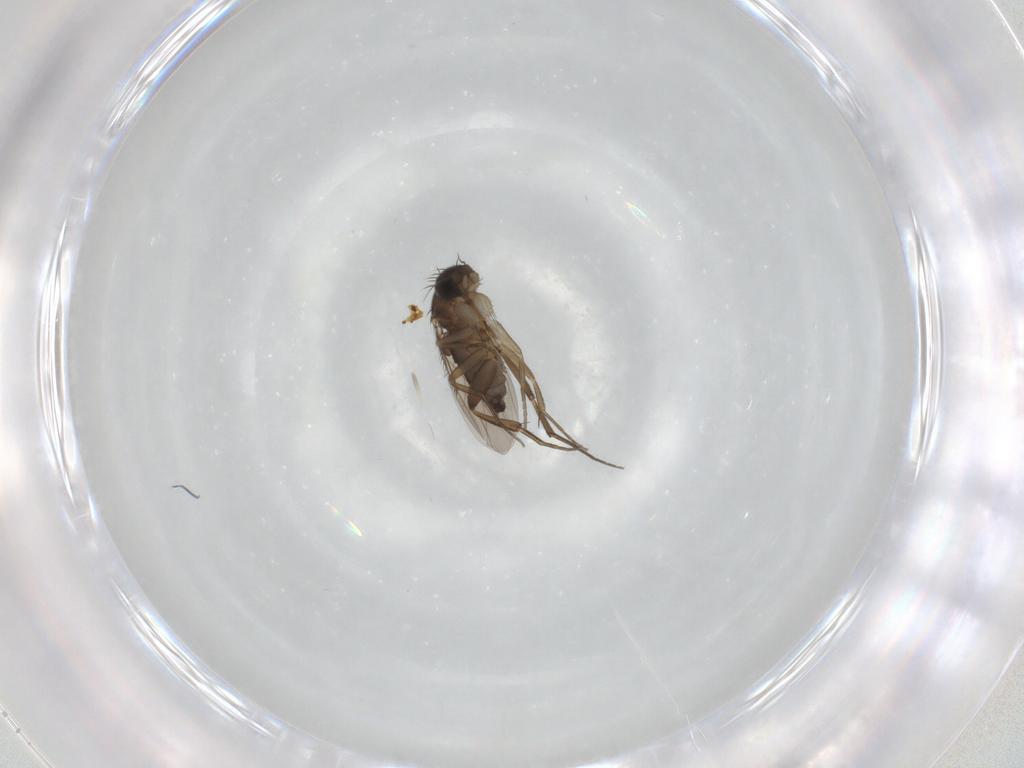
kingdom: Animalia
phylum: Arthropoda
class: Insecta
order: Diptera
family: Phoridae
